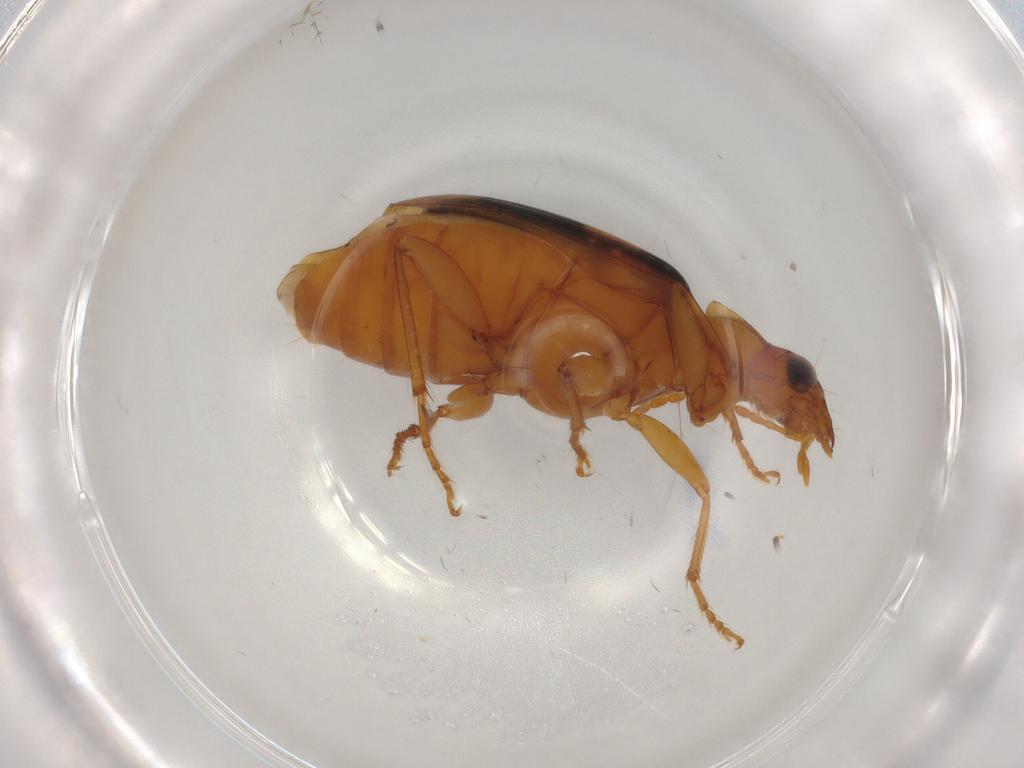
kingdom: Animalia
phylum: Arthropoda
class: Insecta
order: Coleoptera
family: Carabidae
